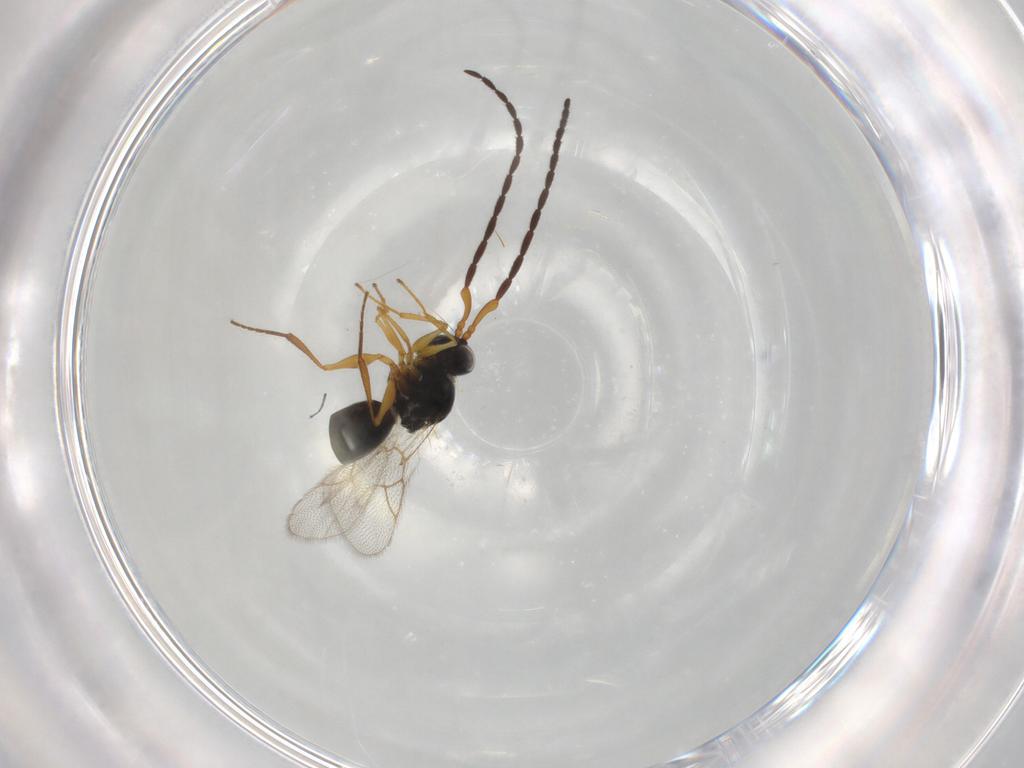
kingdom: Animalia
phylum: Arthropoda
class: Insecta
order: Hymenoptera
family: Figitidae
